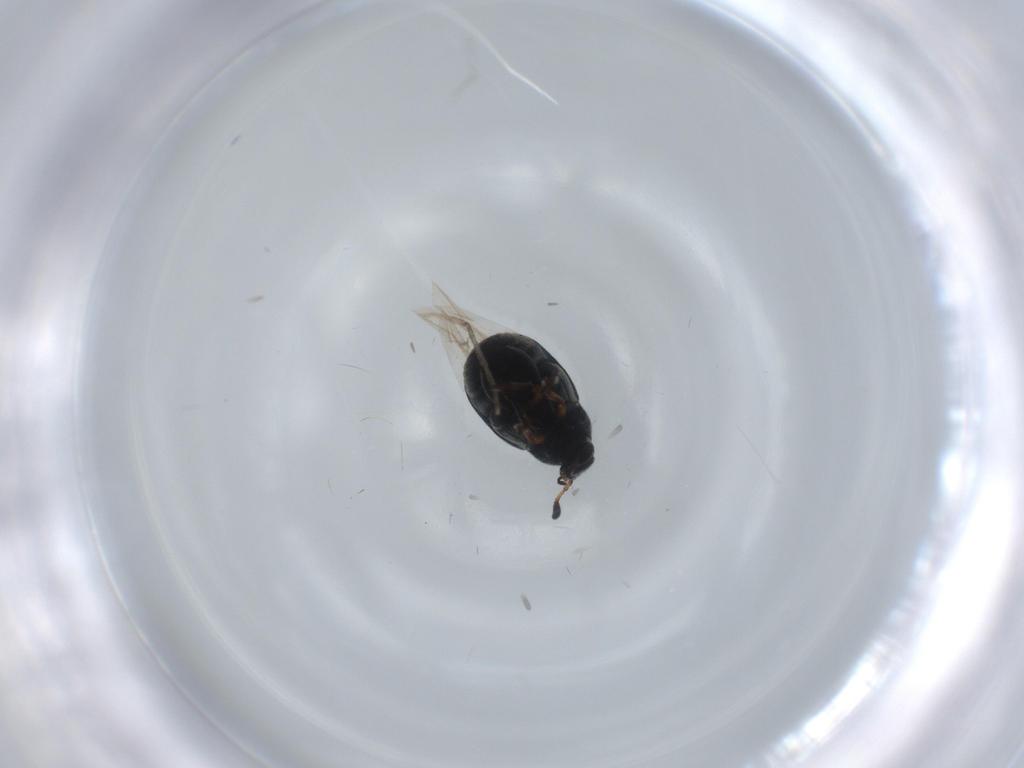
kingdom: Animalia
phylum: Arthropoda
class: Insecta
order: Coleoptera
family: Chrysomelidae
